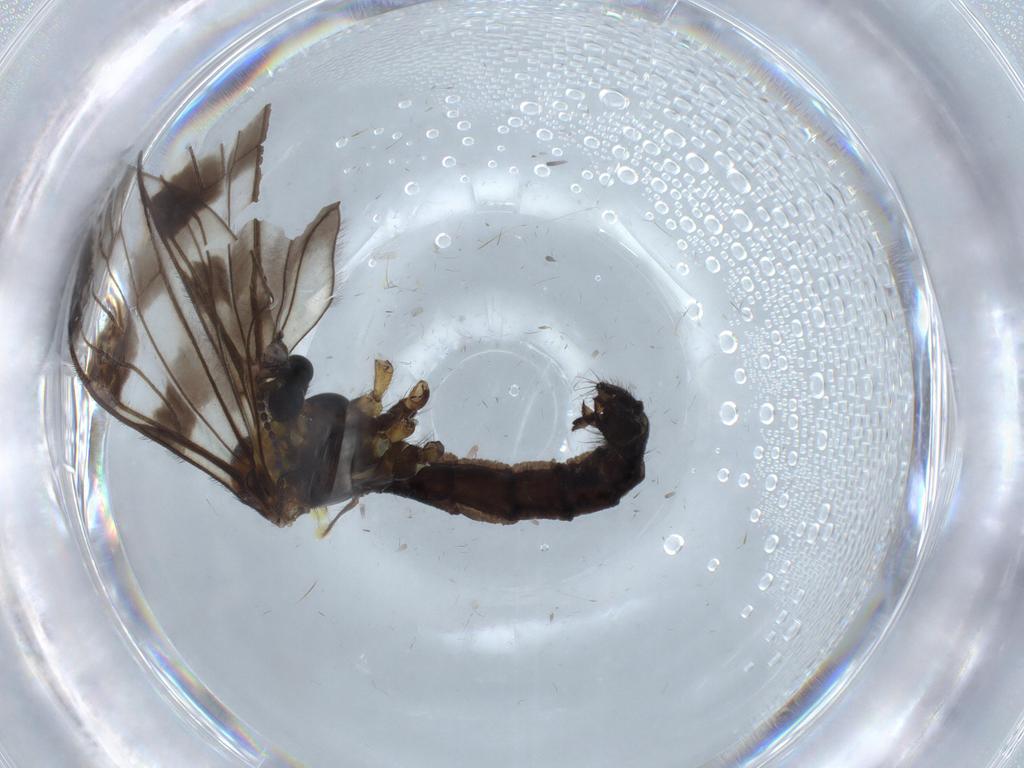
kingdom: Animalia
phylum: Arthropoda
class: Insecta
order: Diptera
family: Limoniidae
